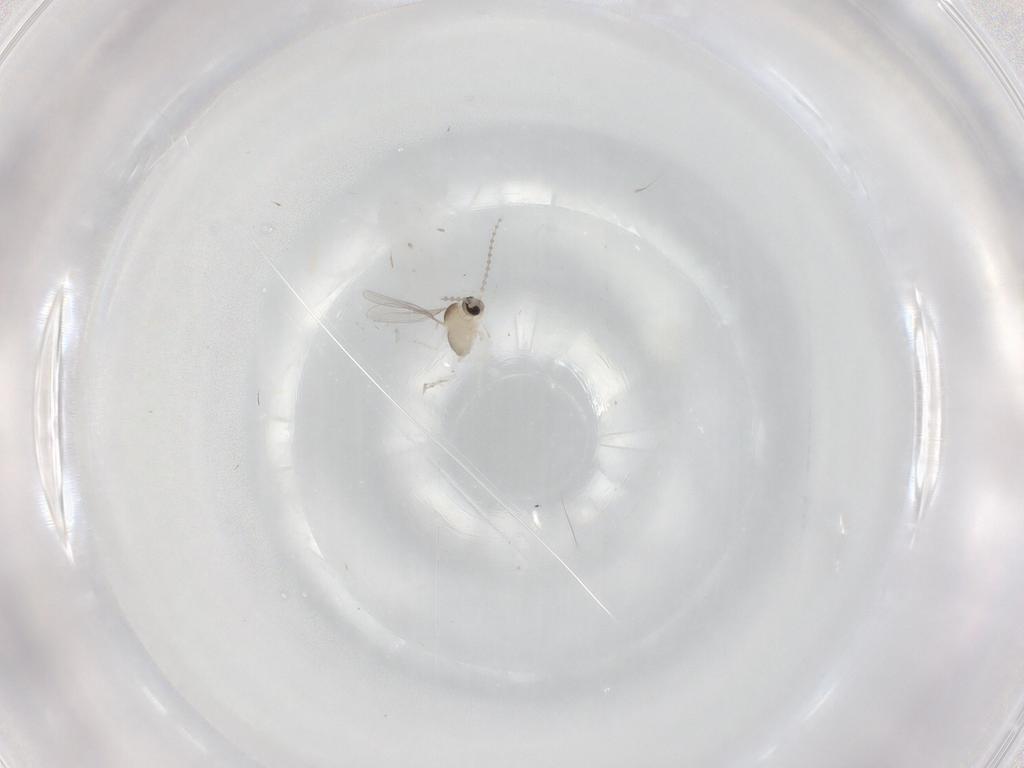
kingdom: Animalia
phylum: Arthropoda
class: Insecta
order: Diptera
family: Cecidomyiidae
